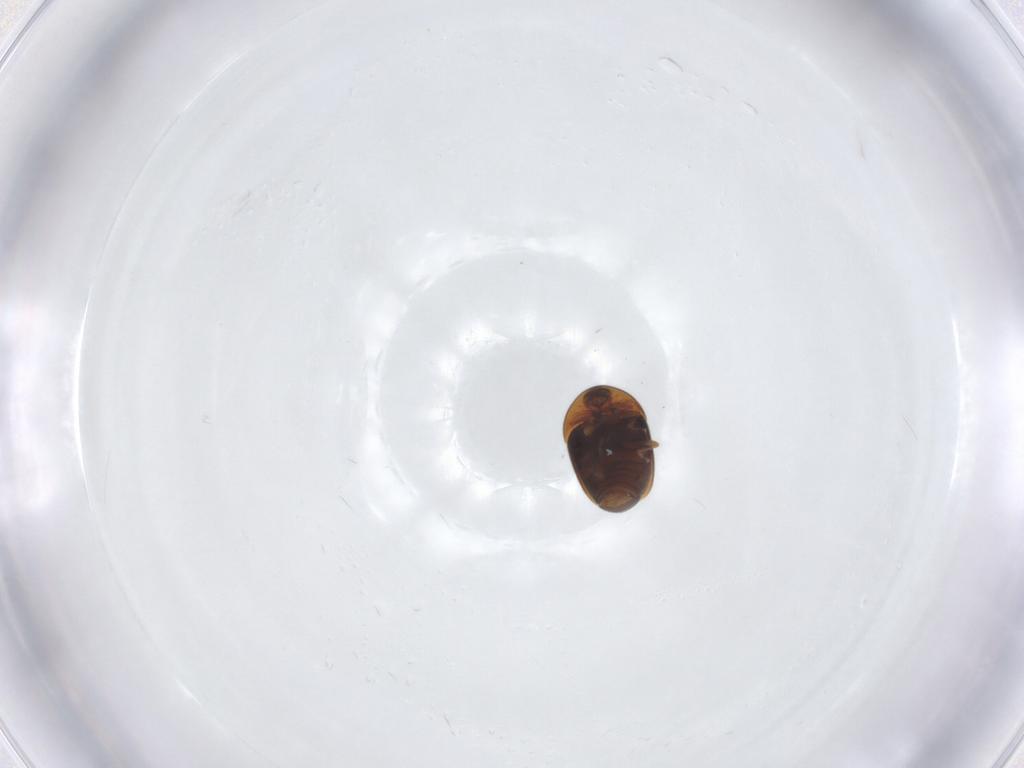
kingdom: Animalia
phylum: Arthropoda
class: Insecta
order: Coleoptera
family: Corylophidae
